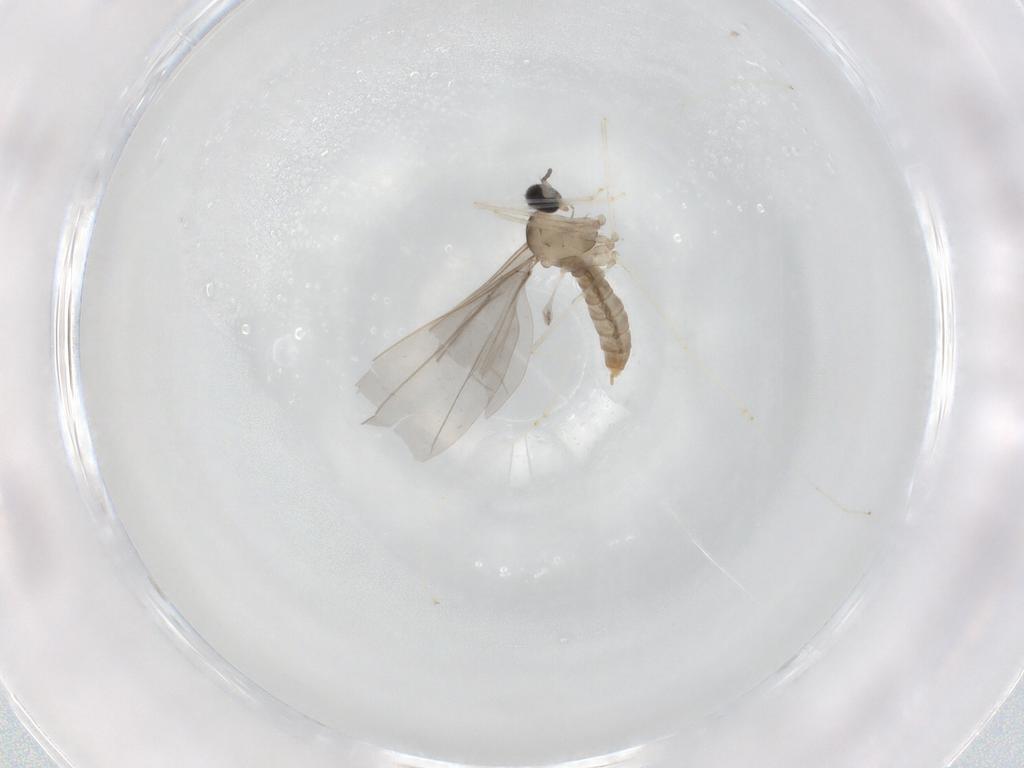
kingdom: Animalia
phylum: Arthropoda
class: Insecta
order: Diptera
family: Cecidomyiidae
